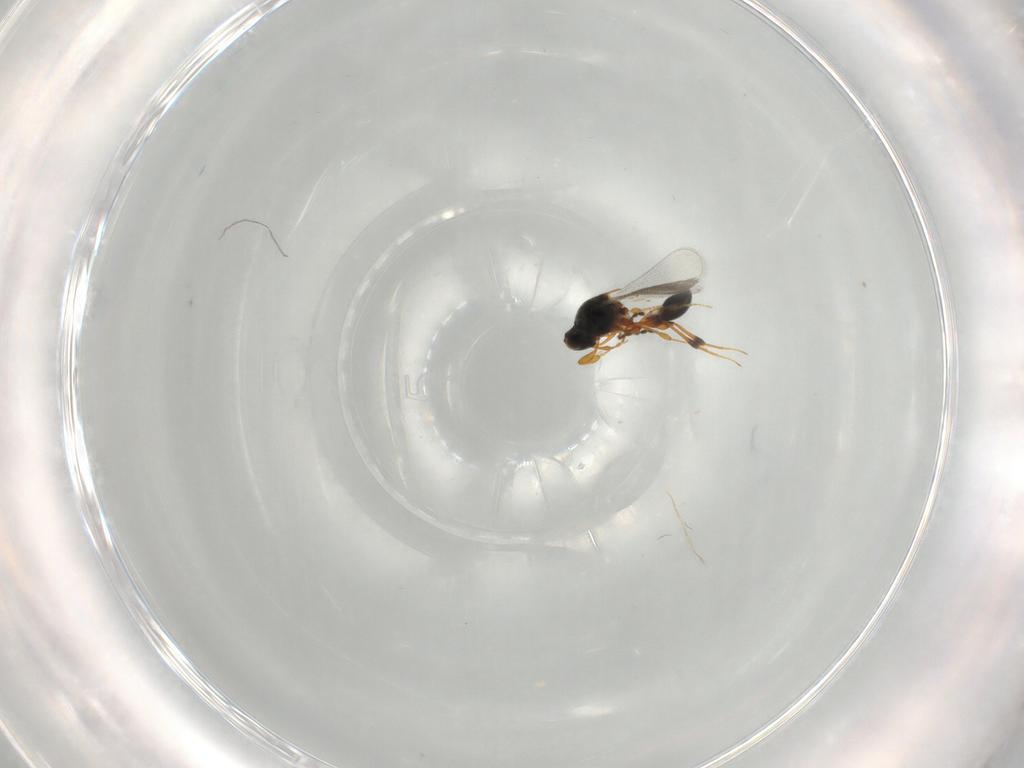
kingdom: Animalia
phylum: Arthropoda
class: Insecta
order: Hymenoptera
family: Platygastridae
